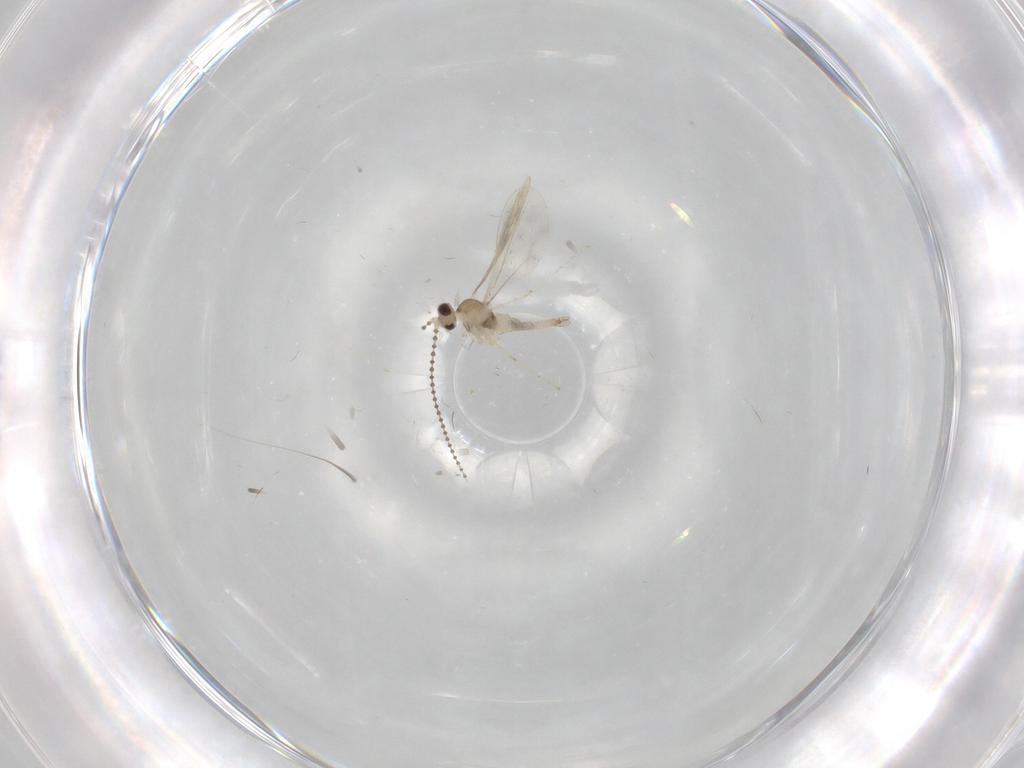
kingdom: Animalia
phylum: Arthropoda
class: Insecta
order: Diptera
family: Cecidomyiidae
